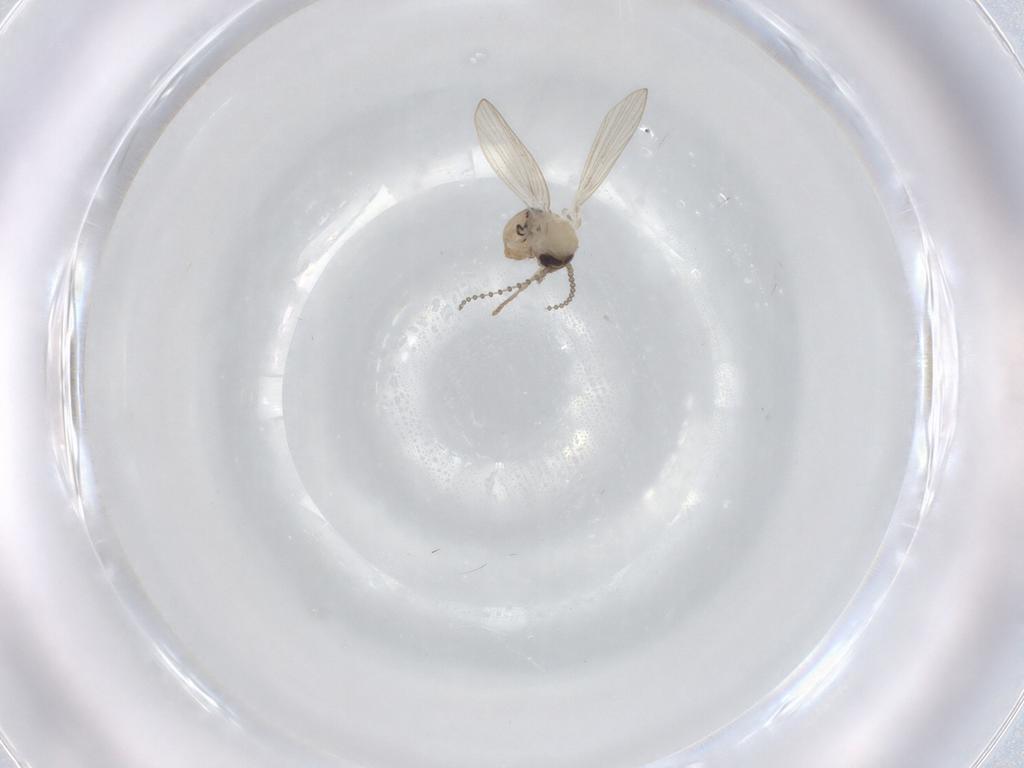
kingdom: Animalia
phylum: Arthropoda
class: Insecta
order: Diptera
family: Psychodidae
